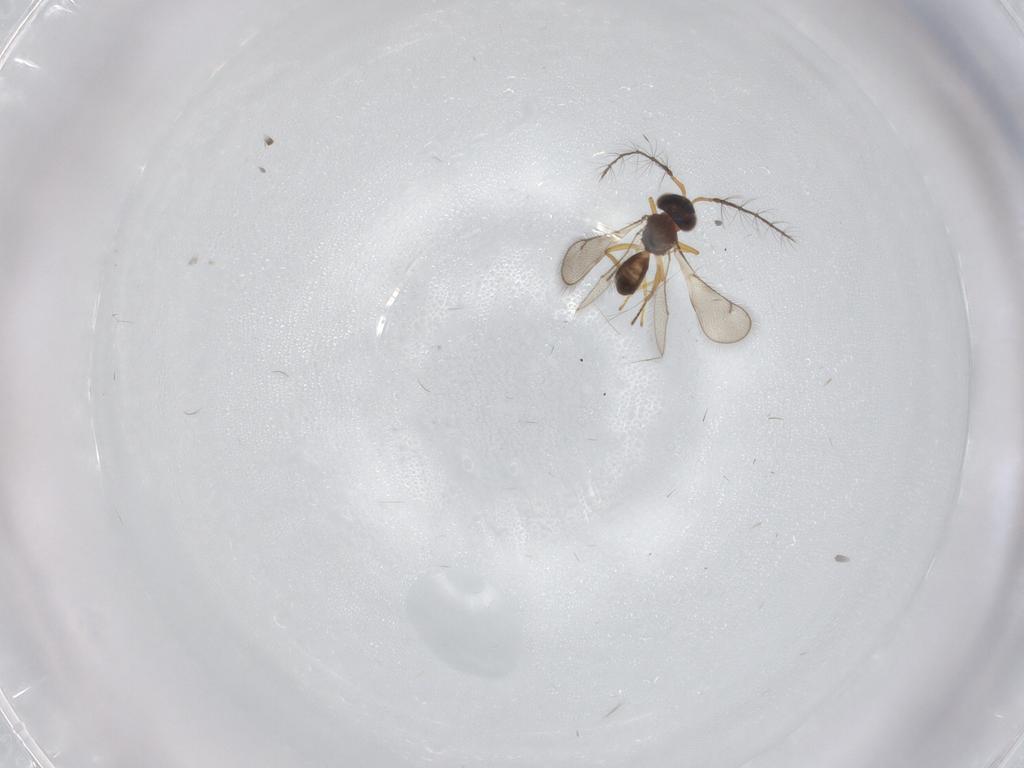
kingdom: Animalia
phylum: Arthropoda
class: Insecta
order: Hymenoptera
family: Eulophidae
